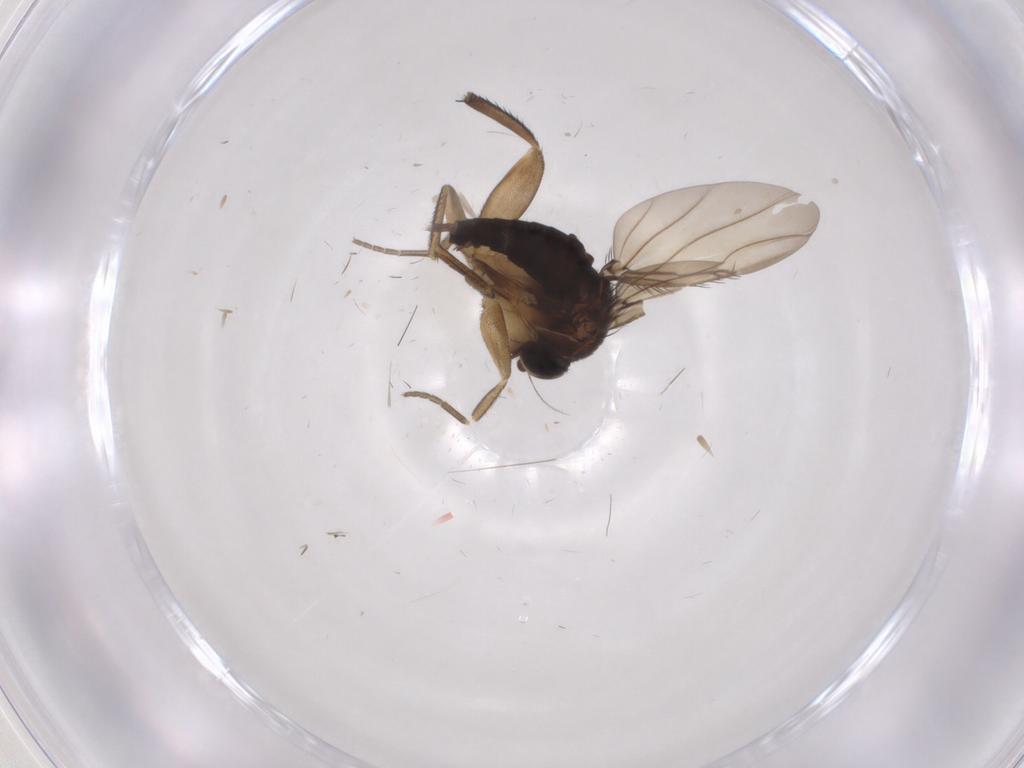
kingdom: Animalia
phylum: Arthropoda
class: Insecta
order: Diptera
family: Phoridae
